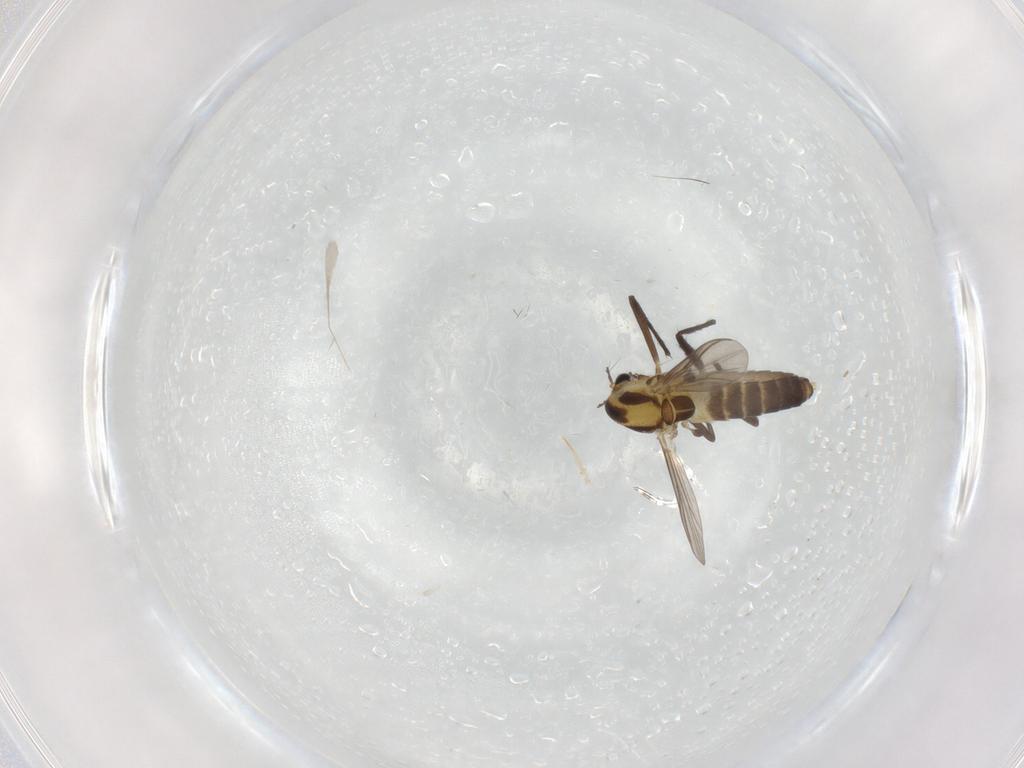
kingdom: Animalia
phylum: Arthropoda
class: Insecta
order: Diptera
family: Chironomidae
